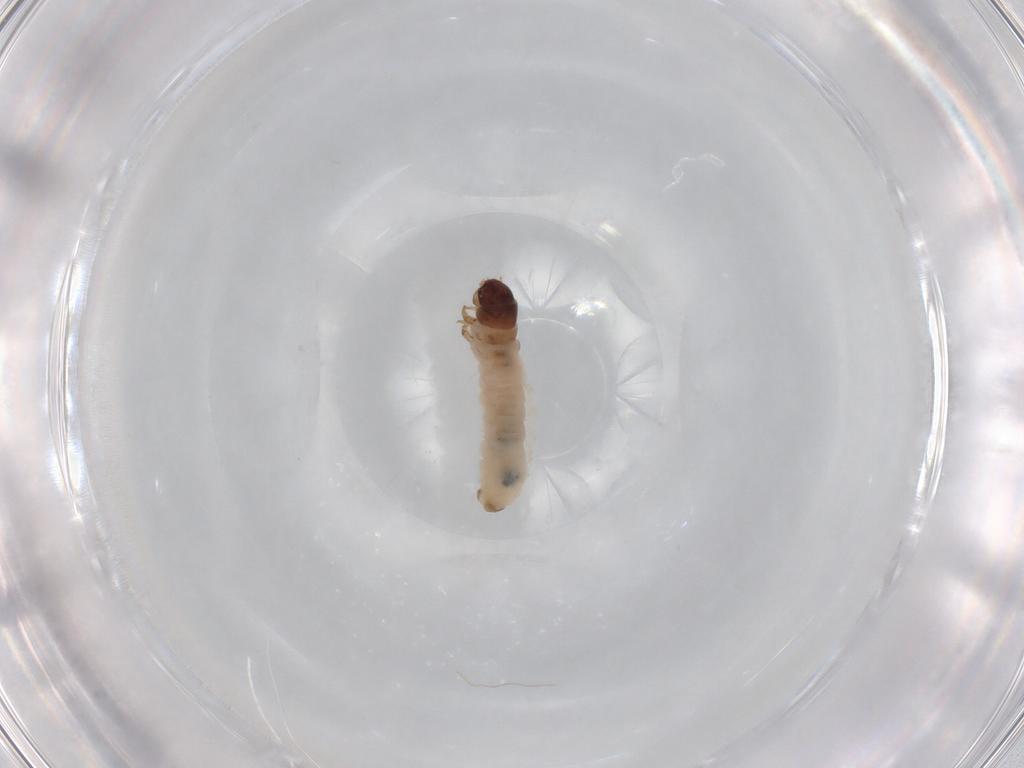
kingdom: Animalia
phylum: Arthropoda
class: Insecta
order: Lepidoptera
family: Psychidae
